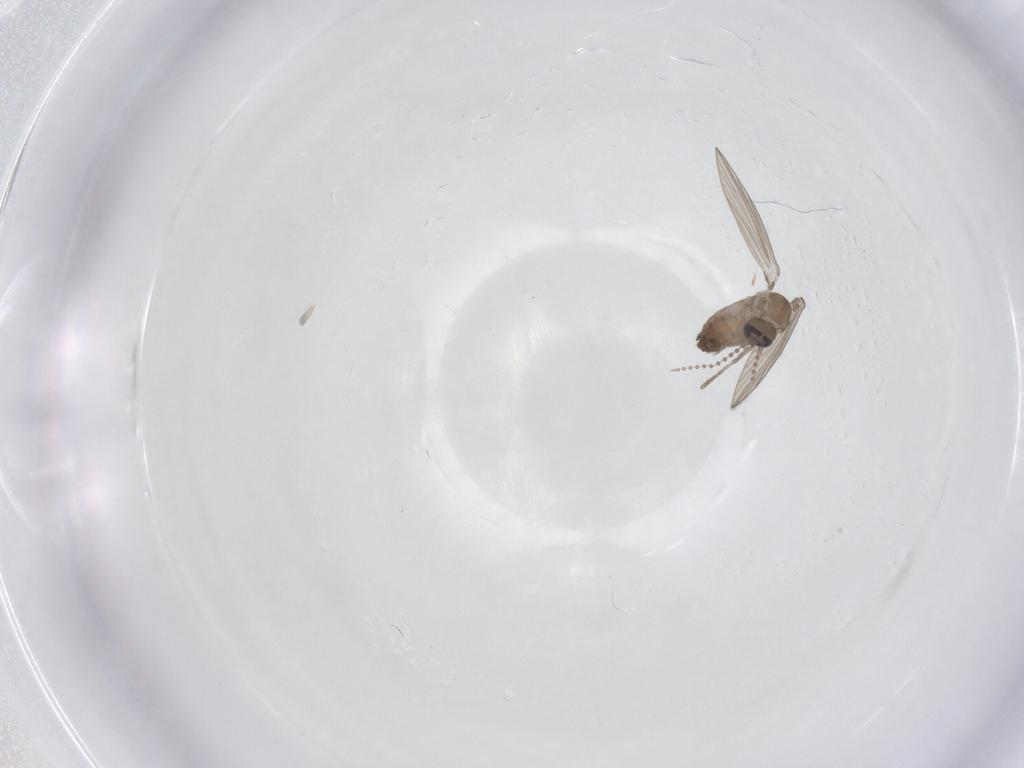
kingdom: Animalia
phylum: Arthropoda
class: Insecta
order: Diptera
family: Psychodidae
